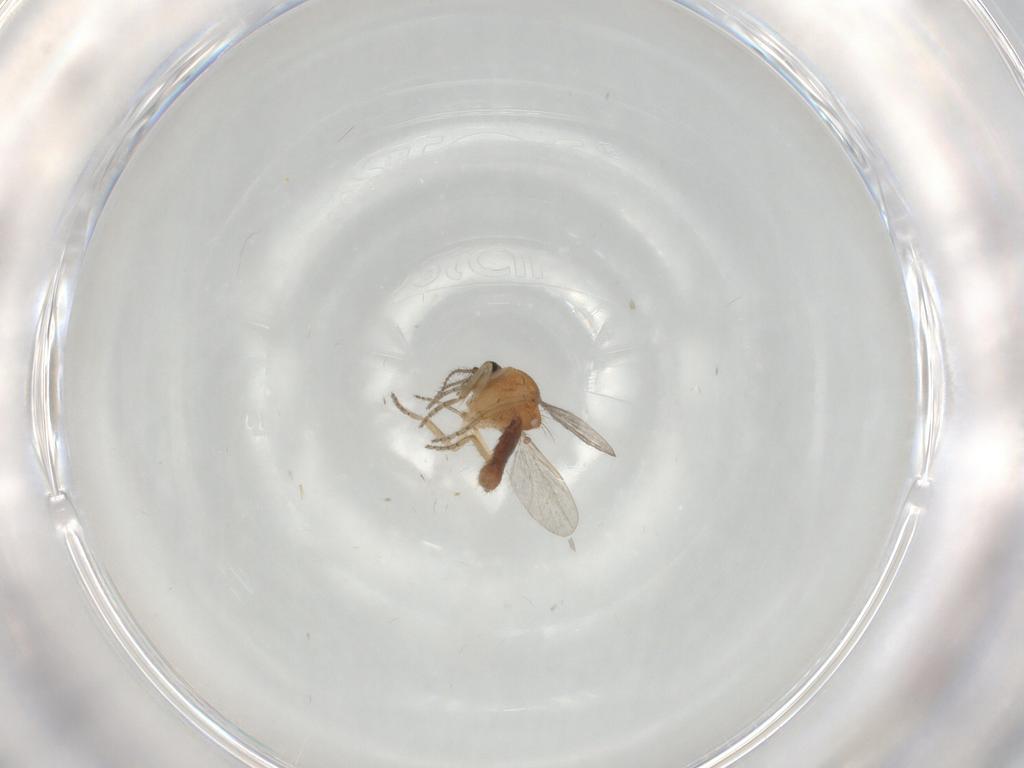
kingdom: Animalia
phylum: Arthropoda
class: Insecta
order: Diptera
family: Ceratopogonidae
